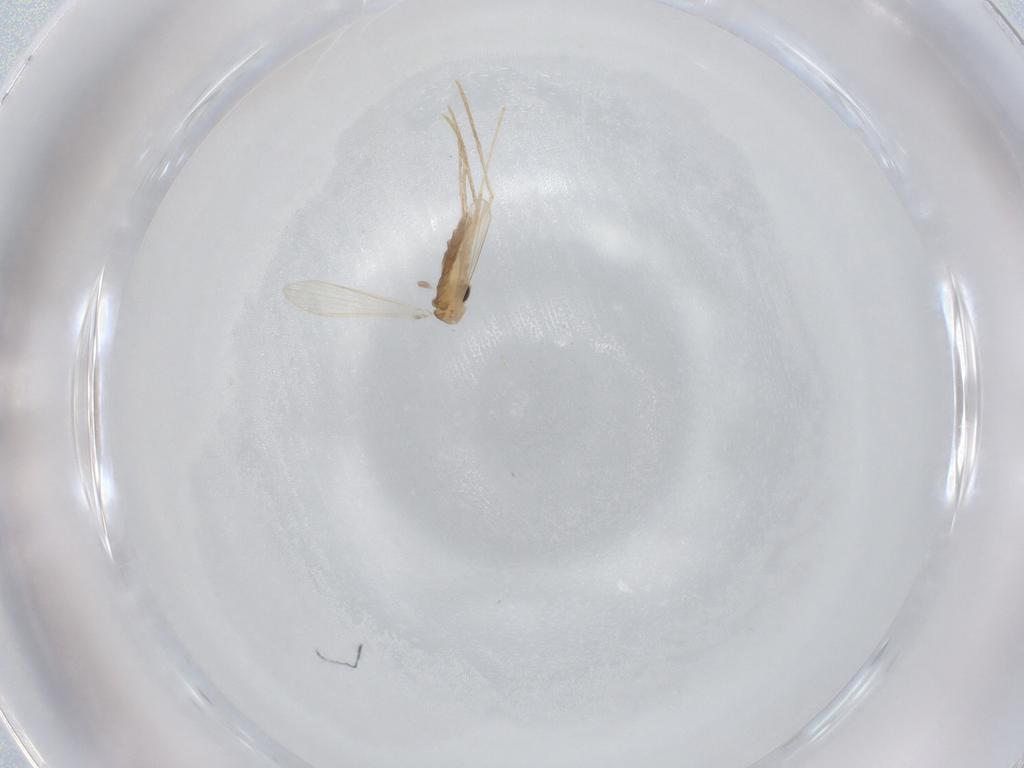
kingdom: Animalia
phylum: Arthropoda
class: Insecta
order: Diptera
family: Psychodidae
